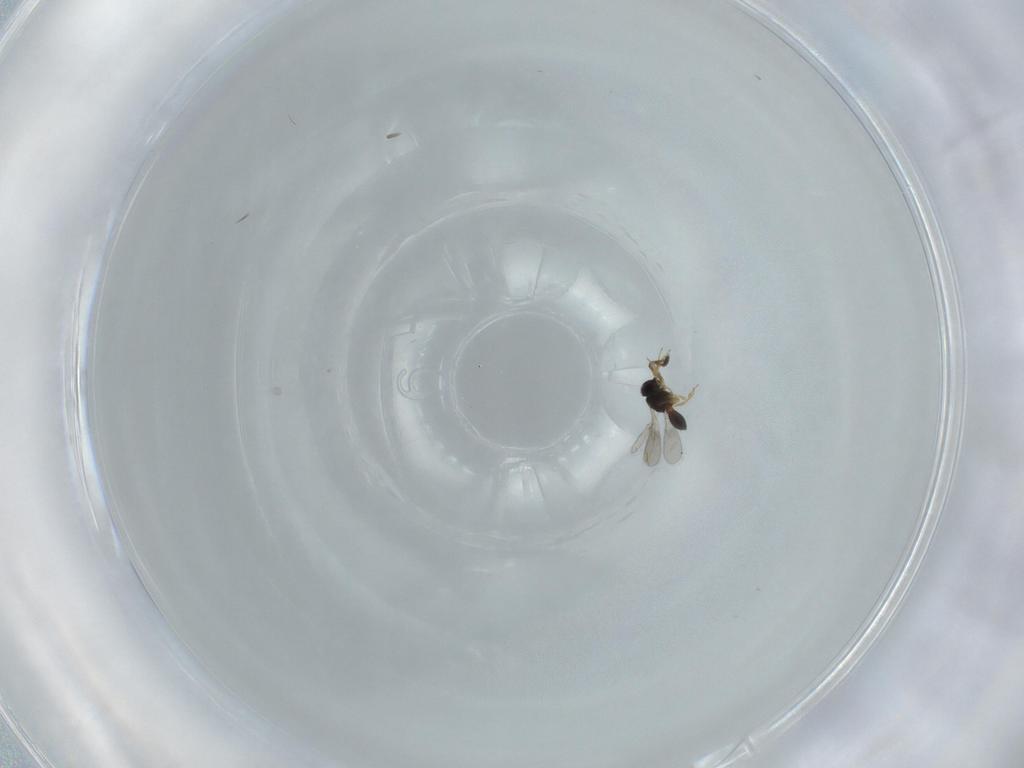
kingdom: Animalia
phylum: Arthropoda
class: Insecta
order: Hymenoptera
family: Scelionidae
